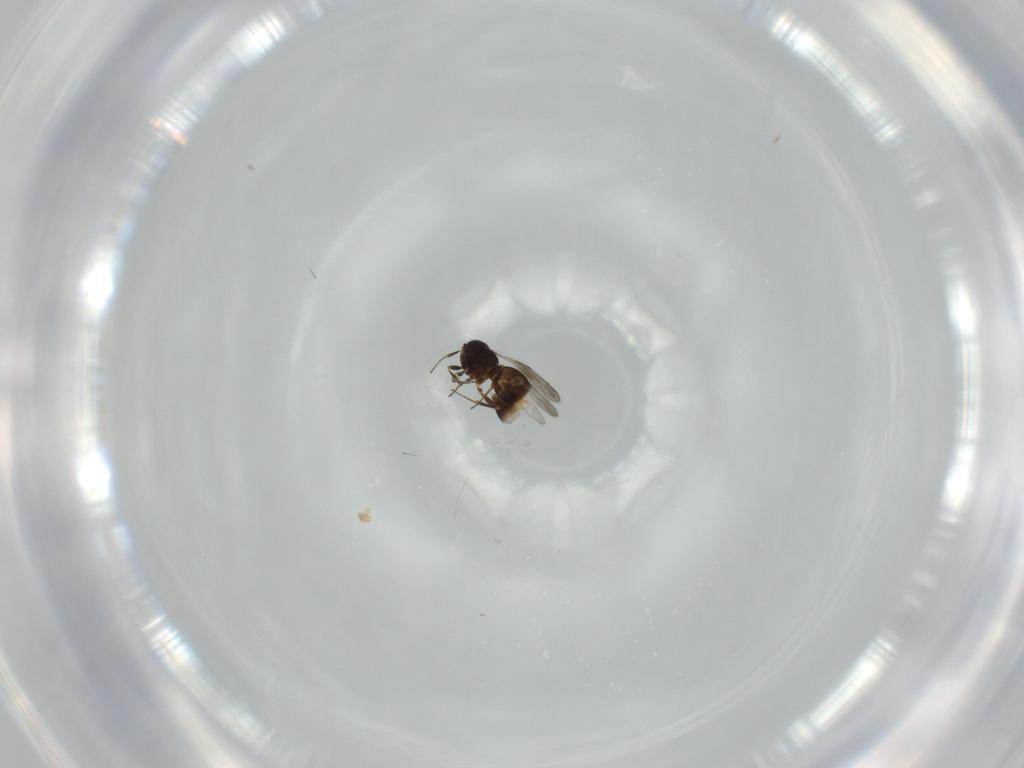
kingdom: Animalia
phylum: Arthropoda
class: Insecta
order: Hymenoptera
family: Ceraphronidae
